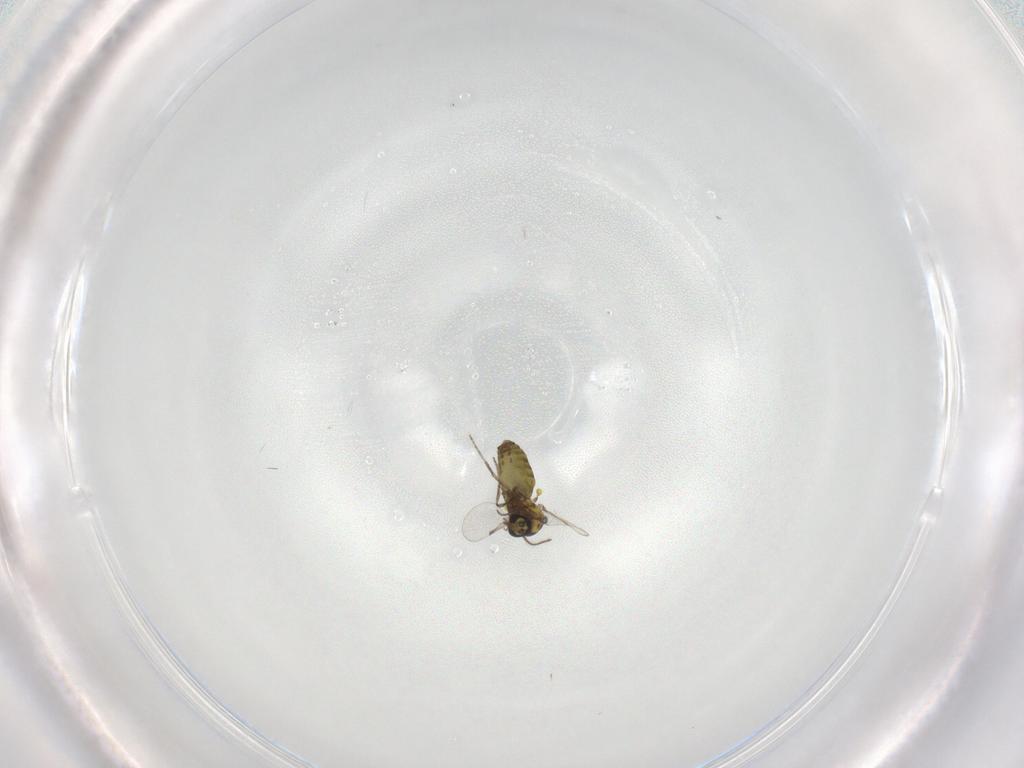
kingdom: Animalia
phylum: Arthropoda
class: Insecta
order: Diptera
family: Ceratopogonidae
